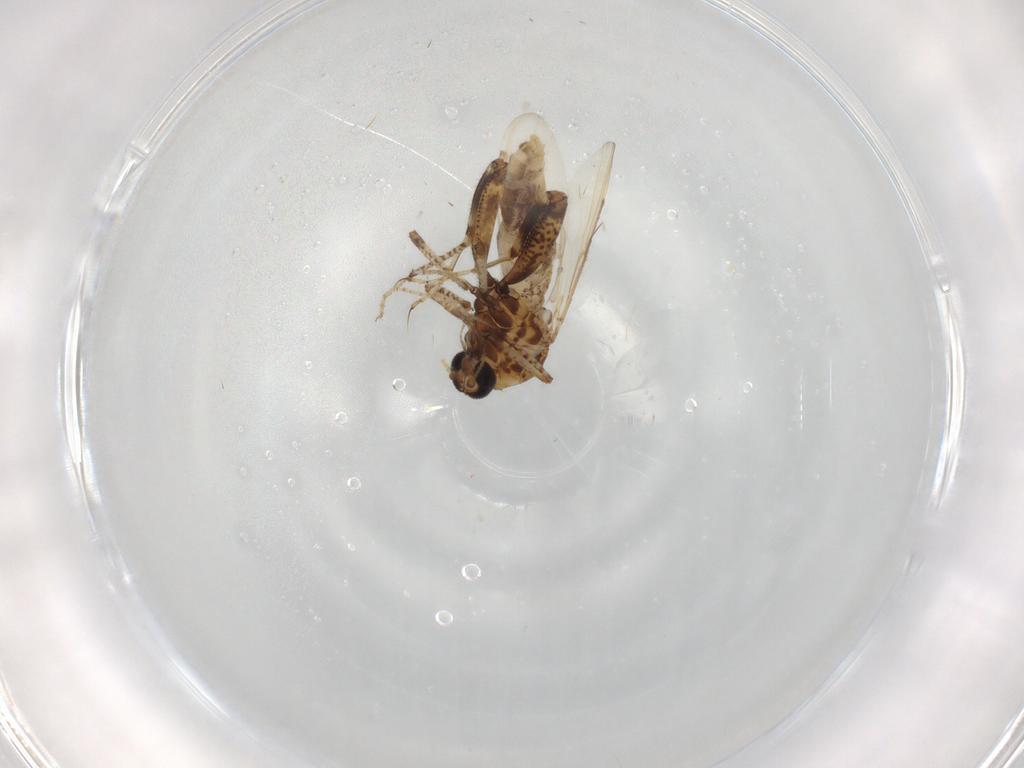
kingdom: Animalia
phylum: Arthropoda
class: Insecta
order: Diptera
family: Ceratopogonidae
